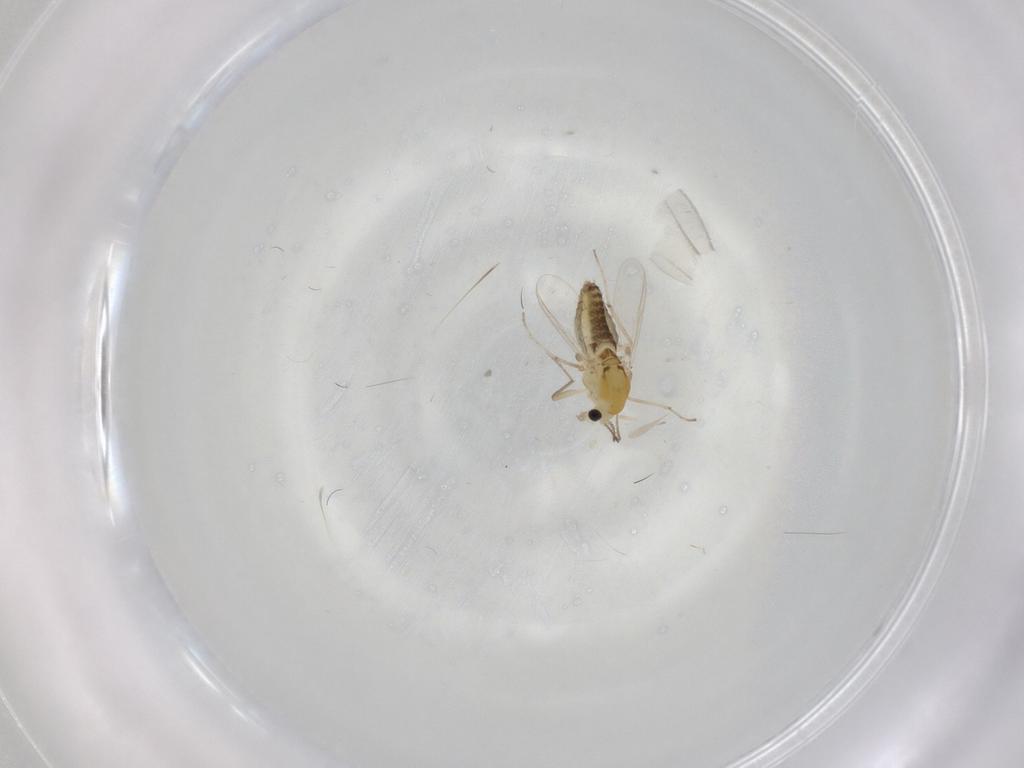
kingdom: Animalia
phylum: Arthropoda
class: Insecta
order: Diptera
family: Chironomidae
